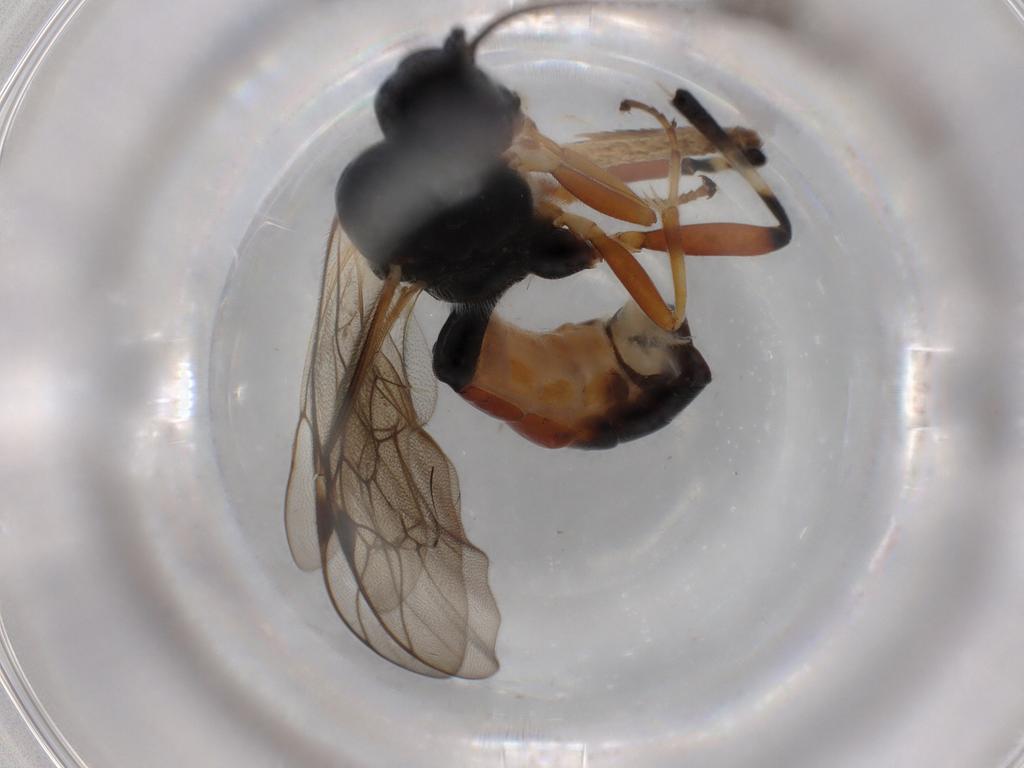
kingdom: Animalia
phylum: Arthropoda
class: Insecta
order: Hymenoptera
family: Ichneumonidae
